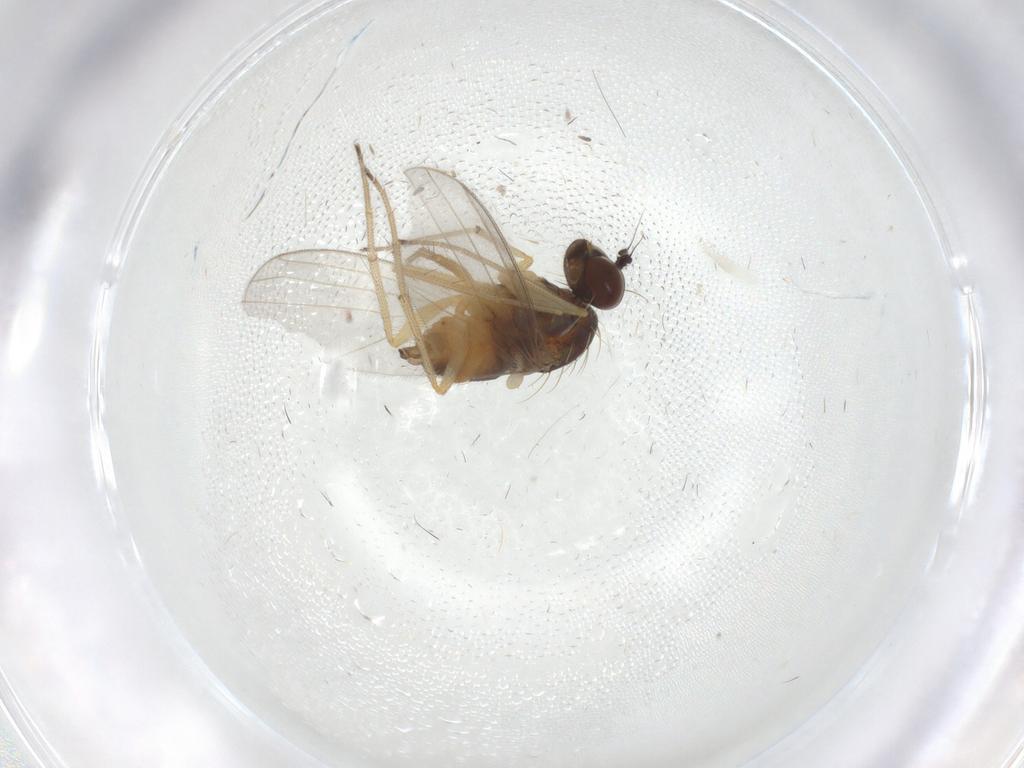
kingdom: Animalia
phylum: Arthropoda
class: Insecta
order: Diptera
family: Dolichopodidae
